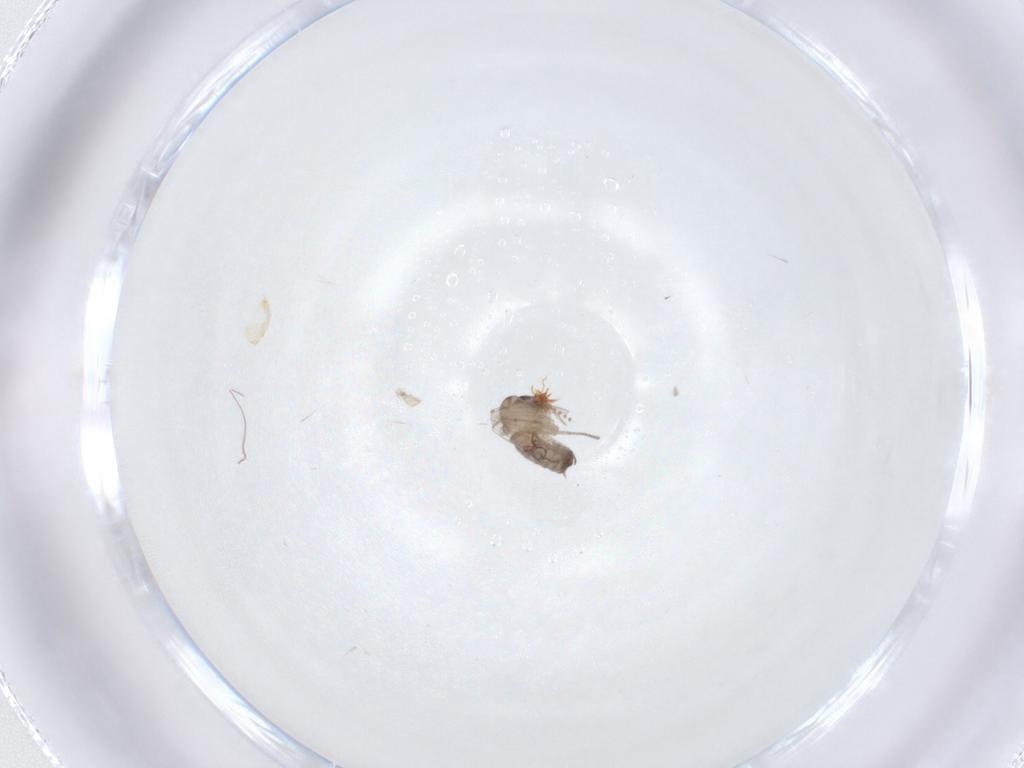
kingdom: Animalia
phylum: Arthropoda
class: Insecta
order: Diptera
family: Psychodidae
